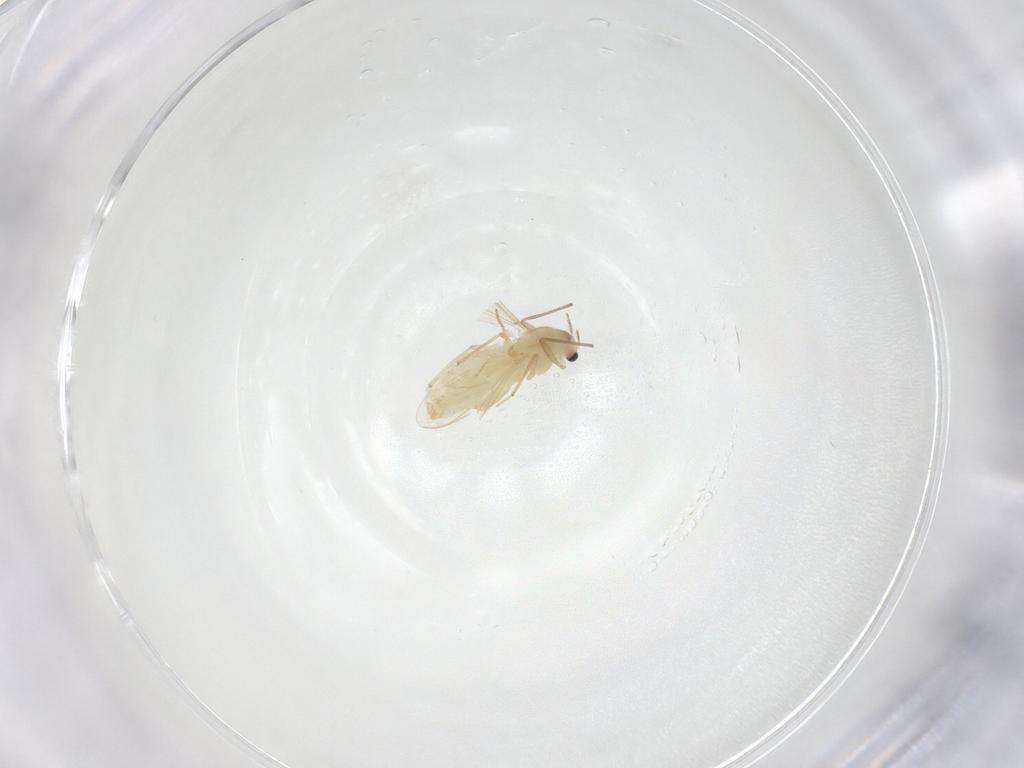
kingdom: Animalia
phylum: Arthropoda
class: Insecta
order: Diptera
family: Chironomidae
